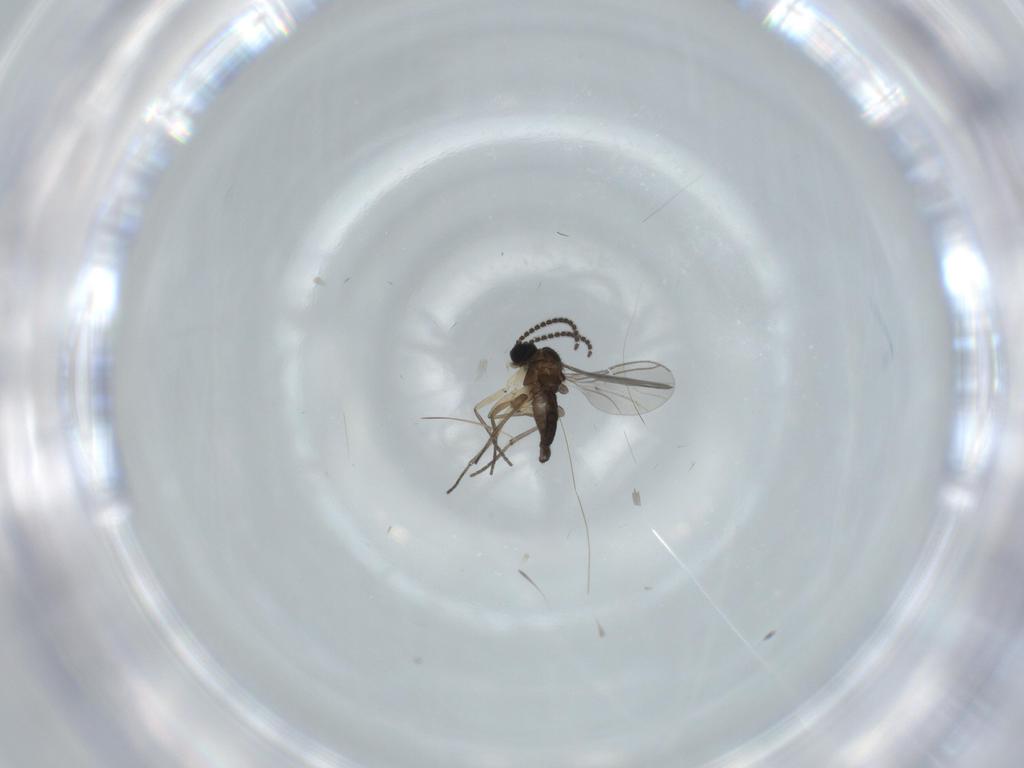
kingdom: Animalia
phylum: Arthropoda
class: Insecta
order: Diptera
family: Sciaridae
